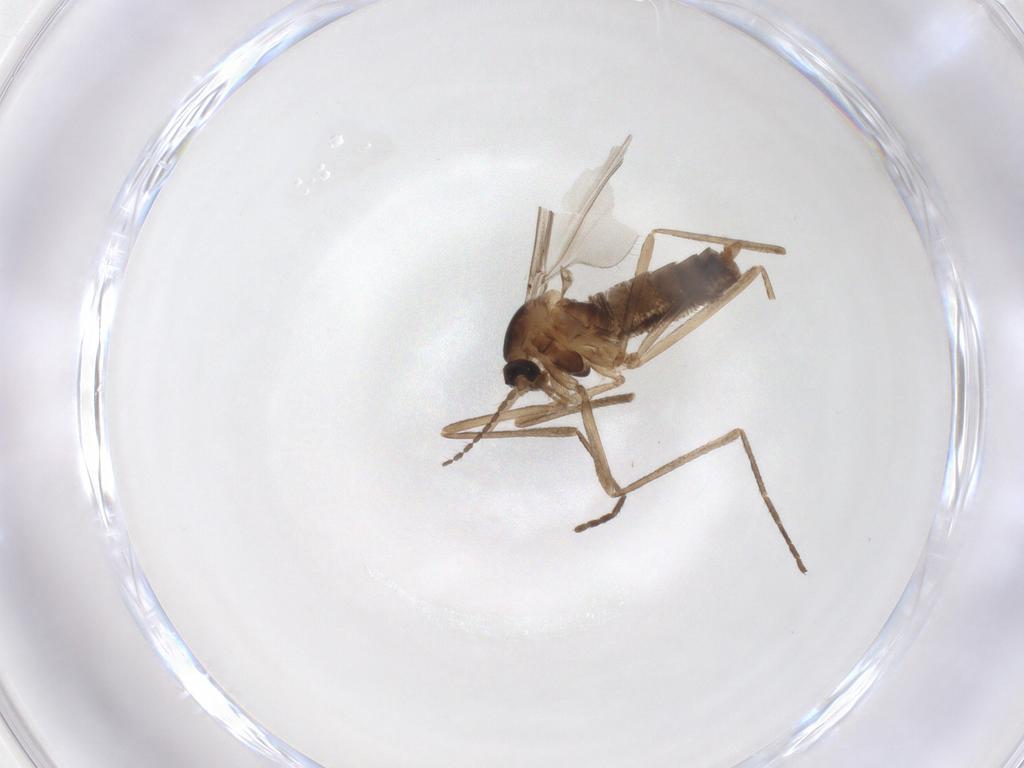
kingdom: Animalia
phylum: Arthropoda
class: Insecta
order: Diptera
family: Cecidomyiidae
